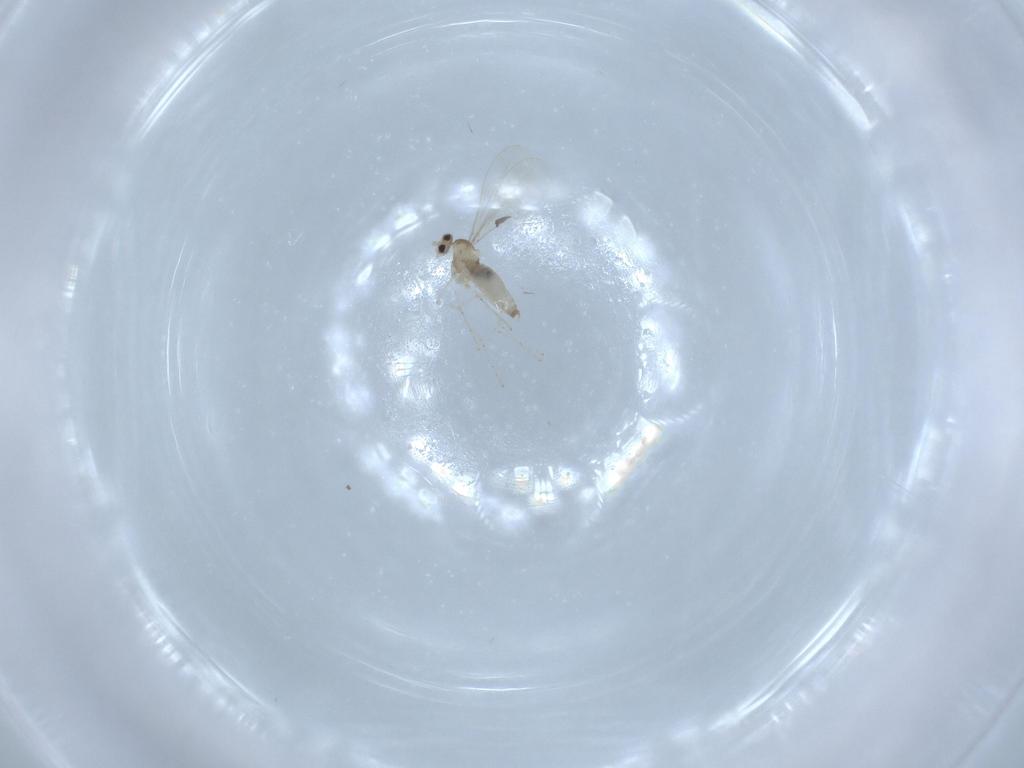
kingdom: Animalia
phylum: Arthropoda
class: Insecta
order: Diptera
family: Cecidomyiidae
